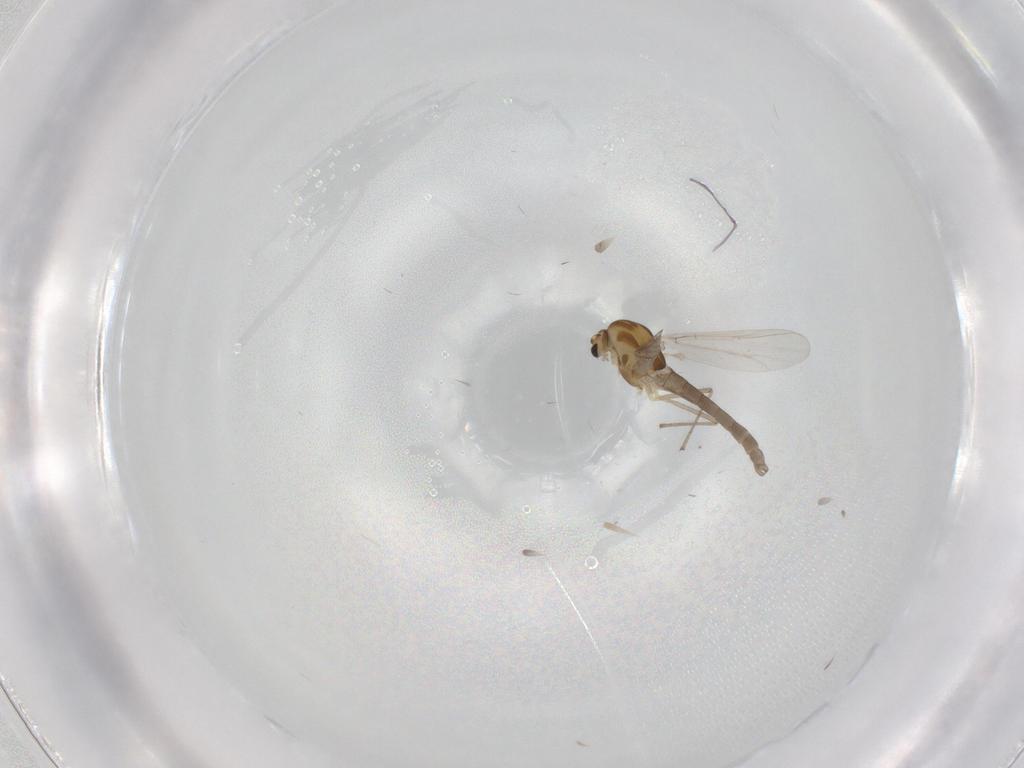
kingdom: Animalia
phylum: Arthropoda
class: Insecta
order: Diptera
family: Chironomidae
